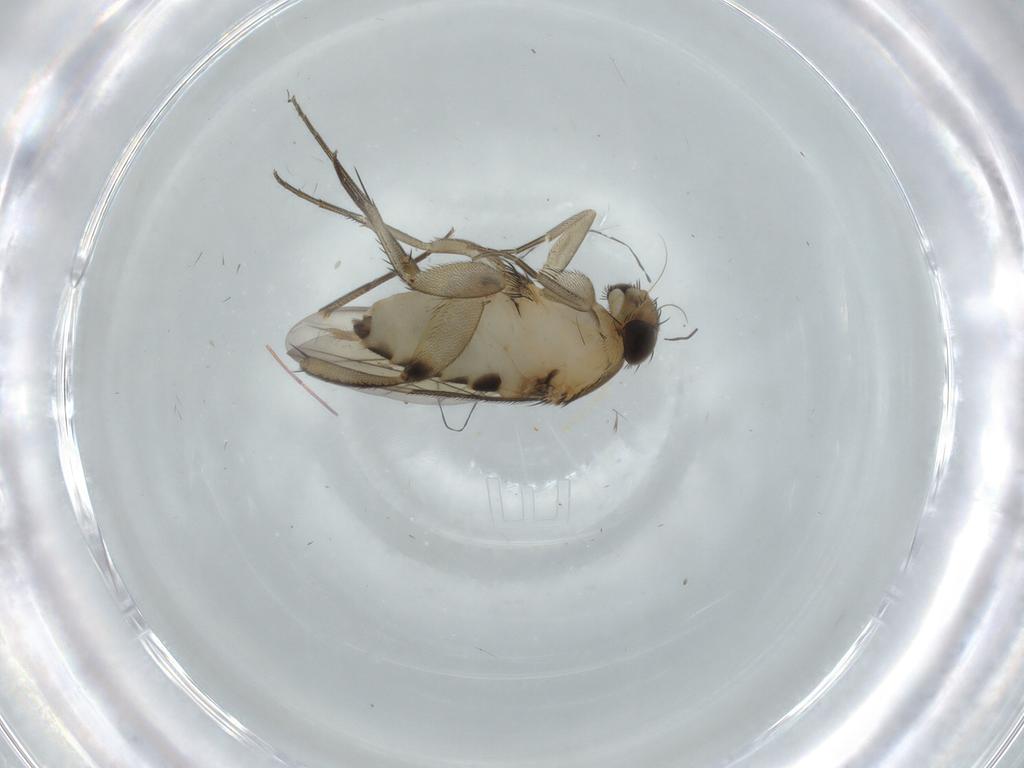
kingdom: Animalia
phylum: Arthropoda
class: Insecta
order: Diptera
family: Phoridae
